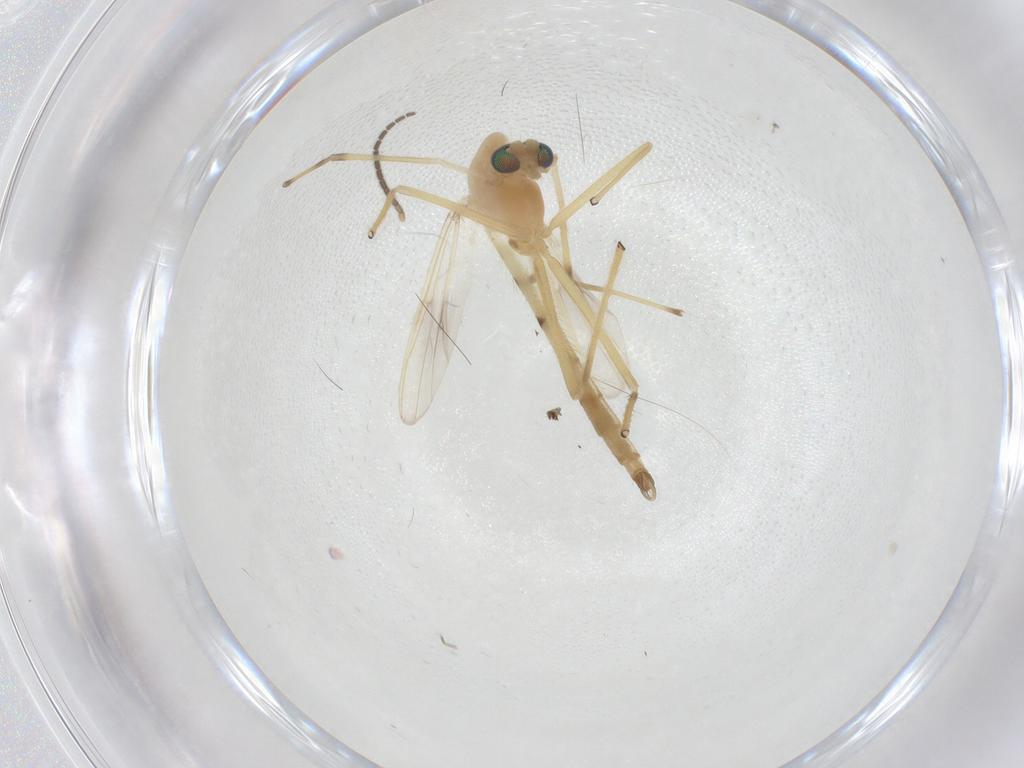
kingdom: Animalia
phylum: Arthropoda
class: Insecta
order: Diptera
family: Chironomidae
